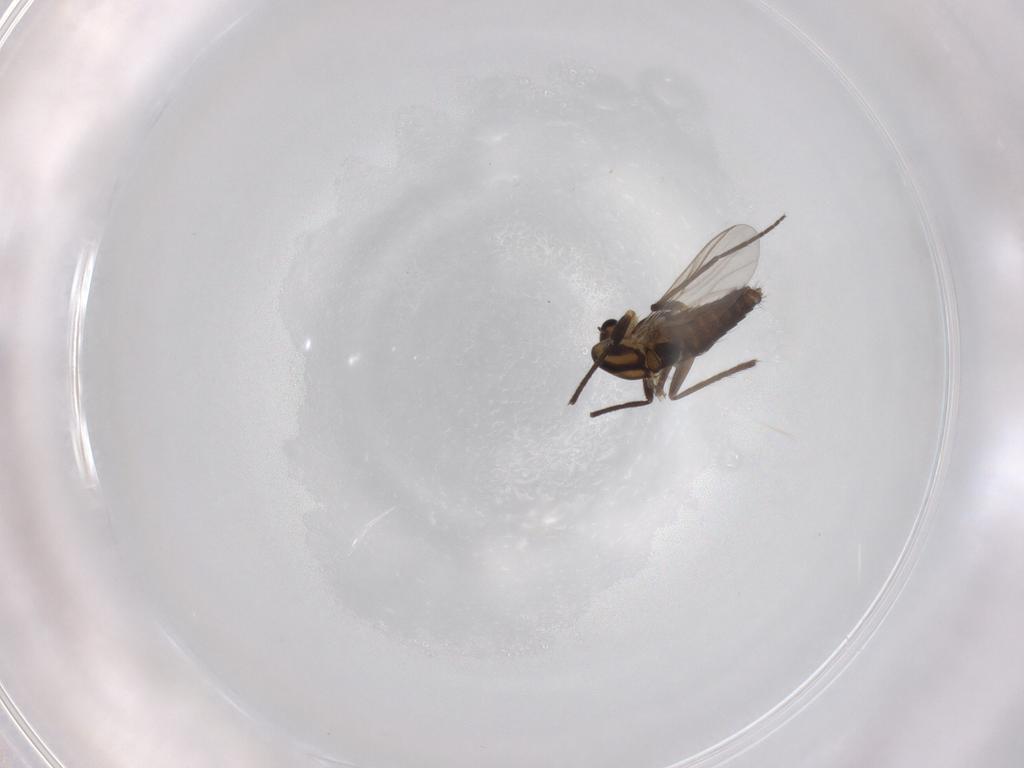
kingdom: Animalia
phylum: Arthropoda
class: Insecta
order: Diptera
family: Chironomidae
